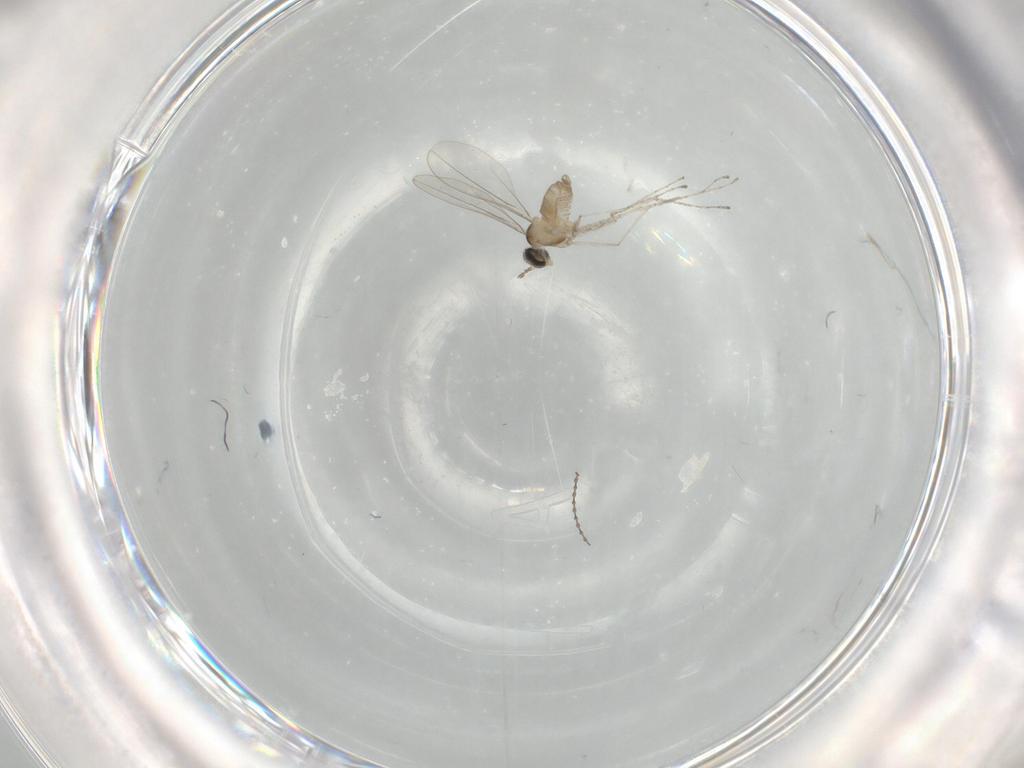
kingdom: Animalia
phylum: Arthropoda
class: Insecta
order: Diptera
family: Cecidomyiidae
